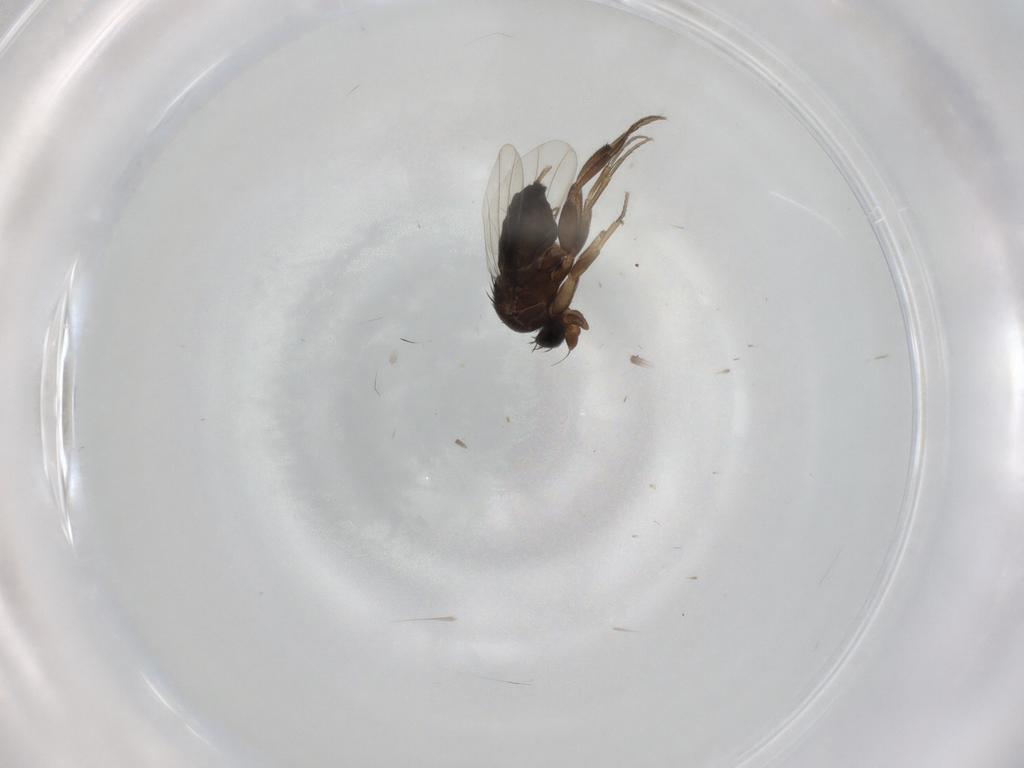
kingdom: Animalia
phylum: Arthropoda
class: Insecta
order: Diptera
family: Phoridae
